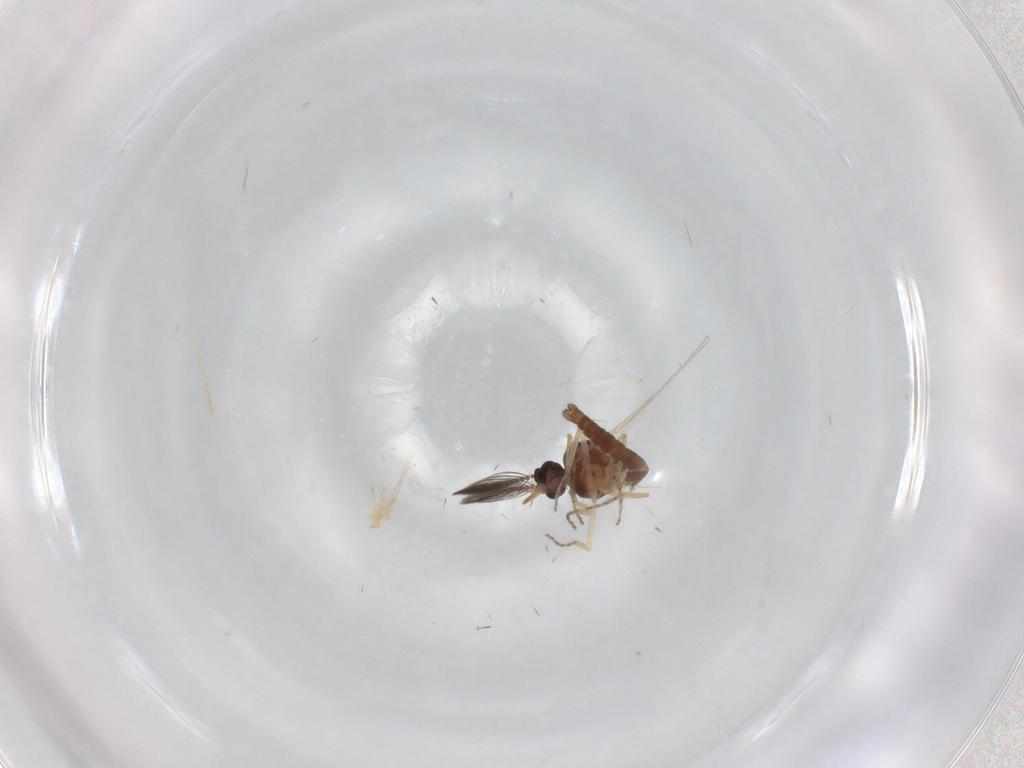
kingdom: Animalia
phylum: Arthropoda
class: Insecta
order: Diptera
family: Ceratopogonidae
